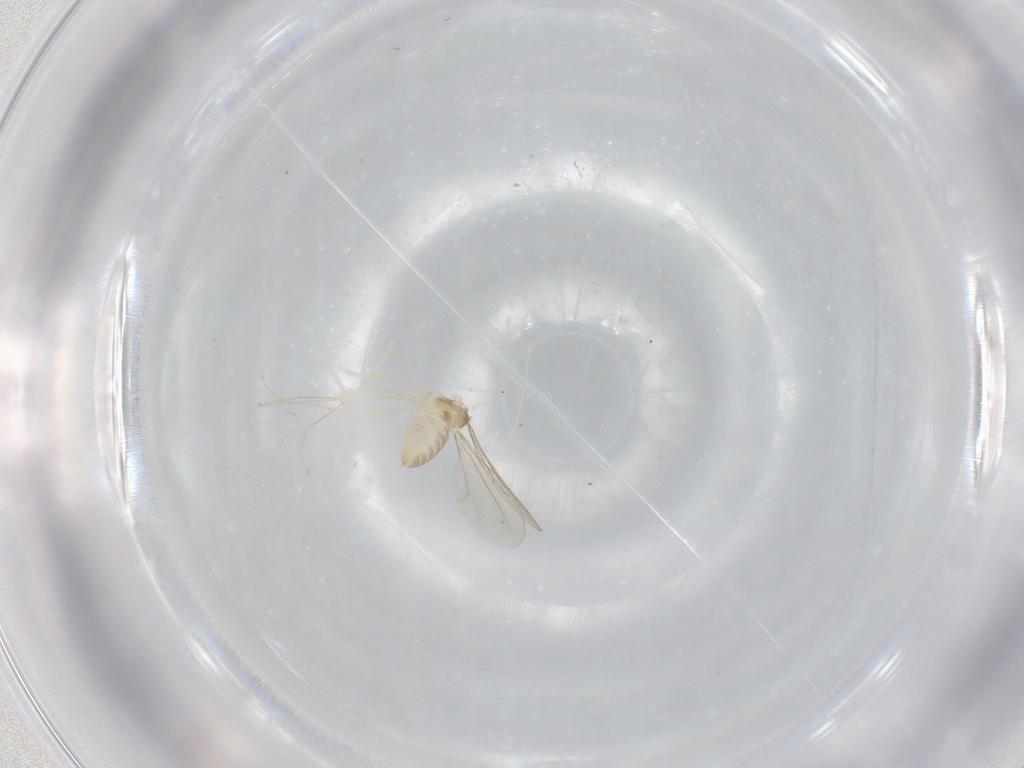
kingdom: Animalia
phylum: Arthropoda
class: Insecta
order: Diptera
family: Cecidomyiidae
